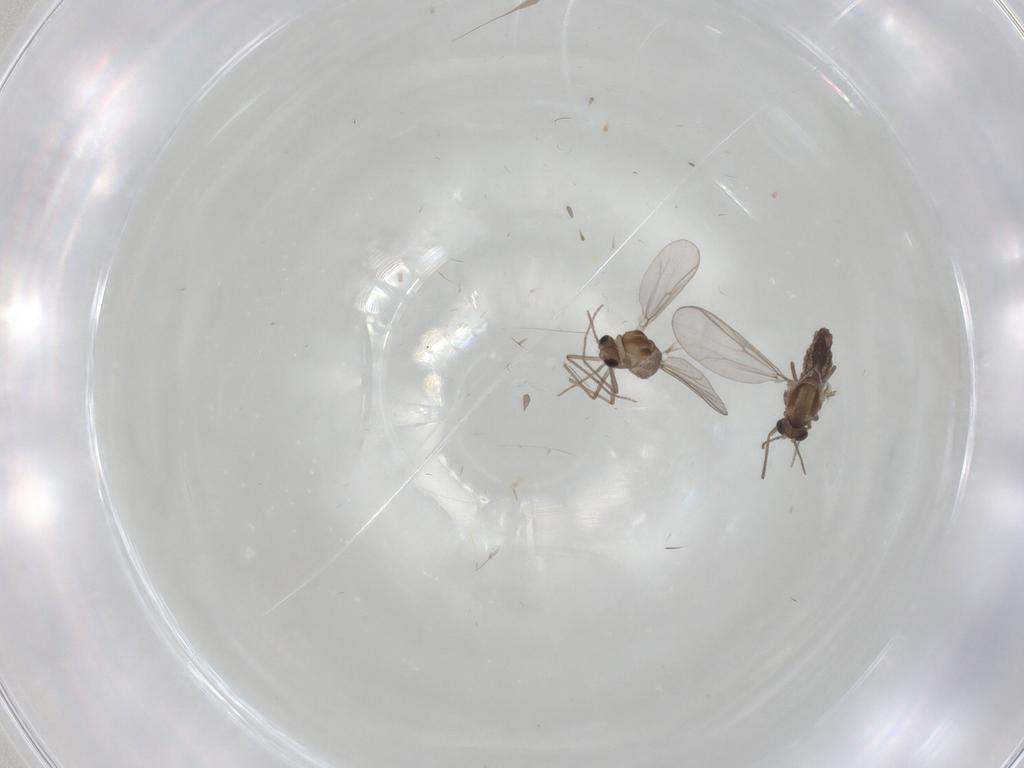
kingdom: Animalia
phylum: Arthropoda
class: Insecta
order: Diptera
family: Chironomidae
